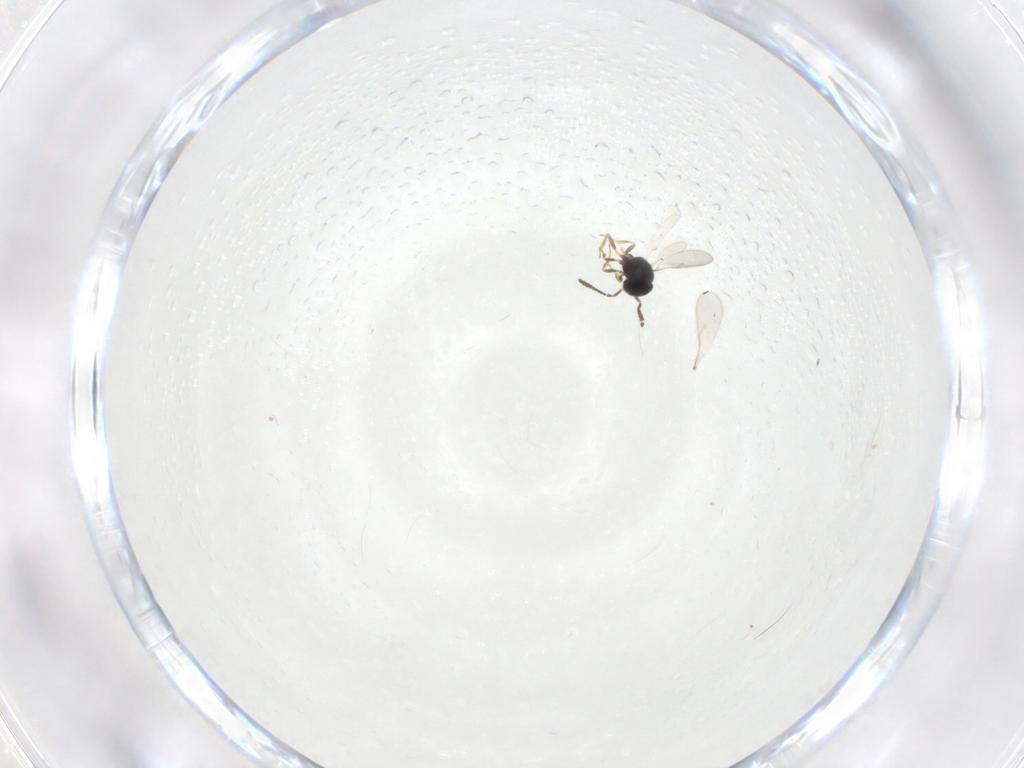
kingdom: Animalia
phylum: Arthropoda
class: Insecta
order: Hymenoptera
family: Scelionidae
